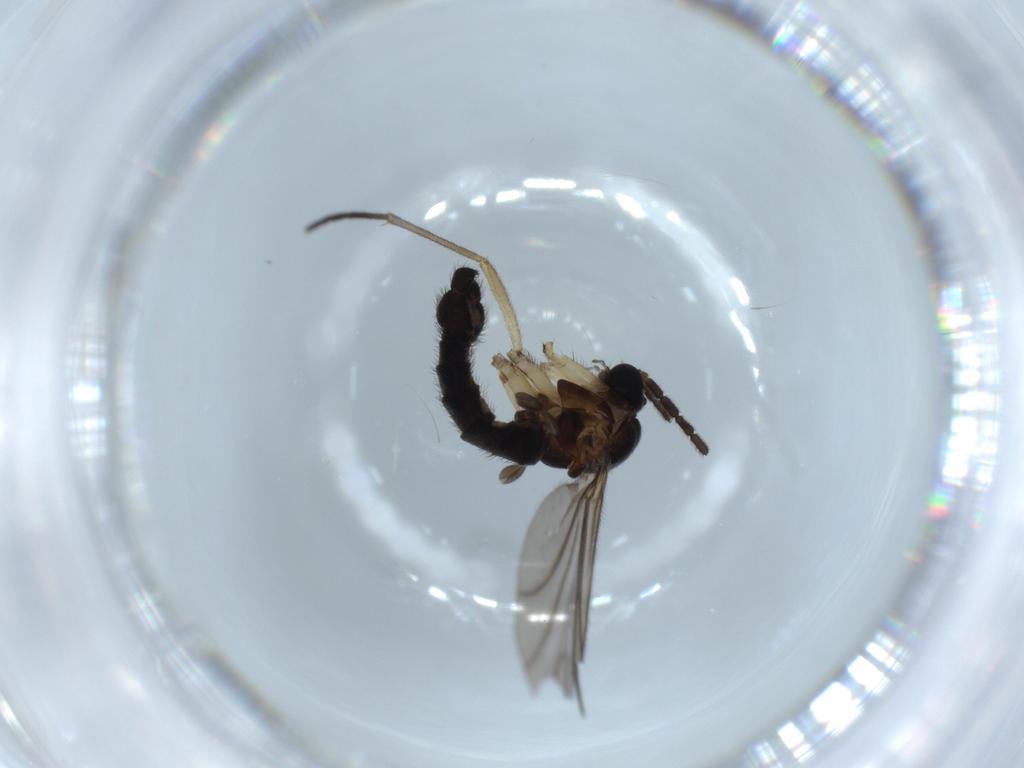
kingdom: Animalia
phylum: Arthropoda
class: Insecta
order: Diptera
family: Sciaridae
